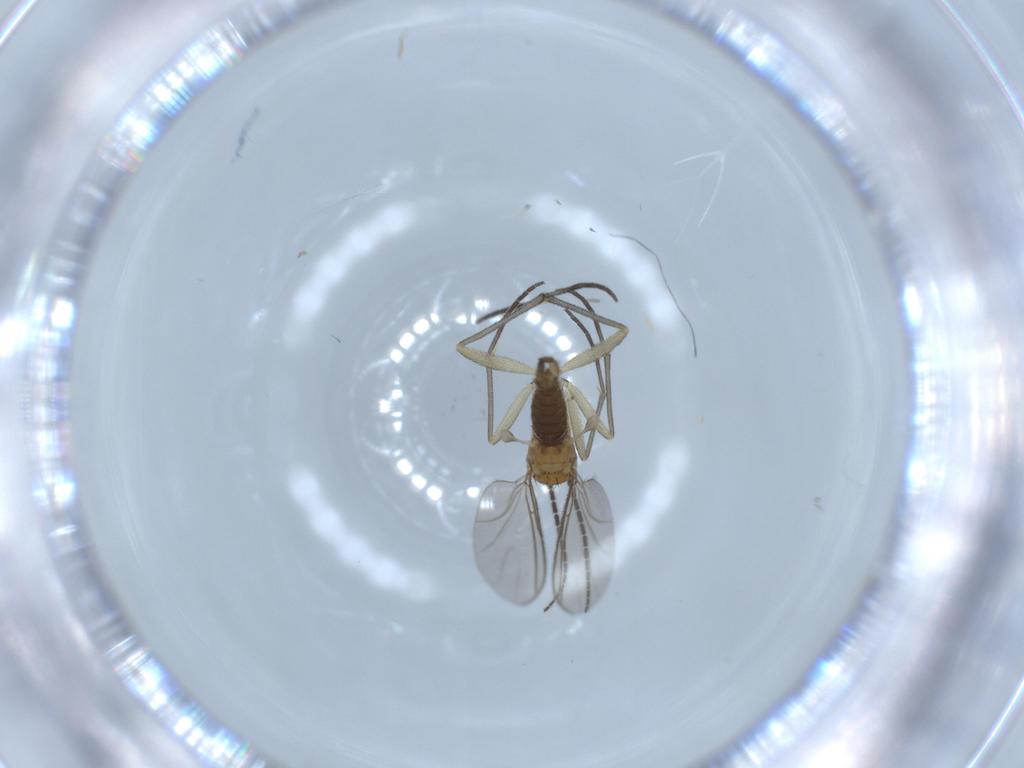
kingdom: Animalia
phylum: Arthropoda
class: Insecta
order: Diptera
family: Sciaridae
